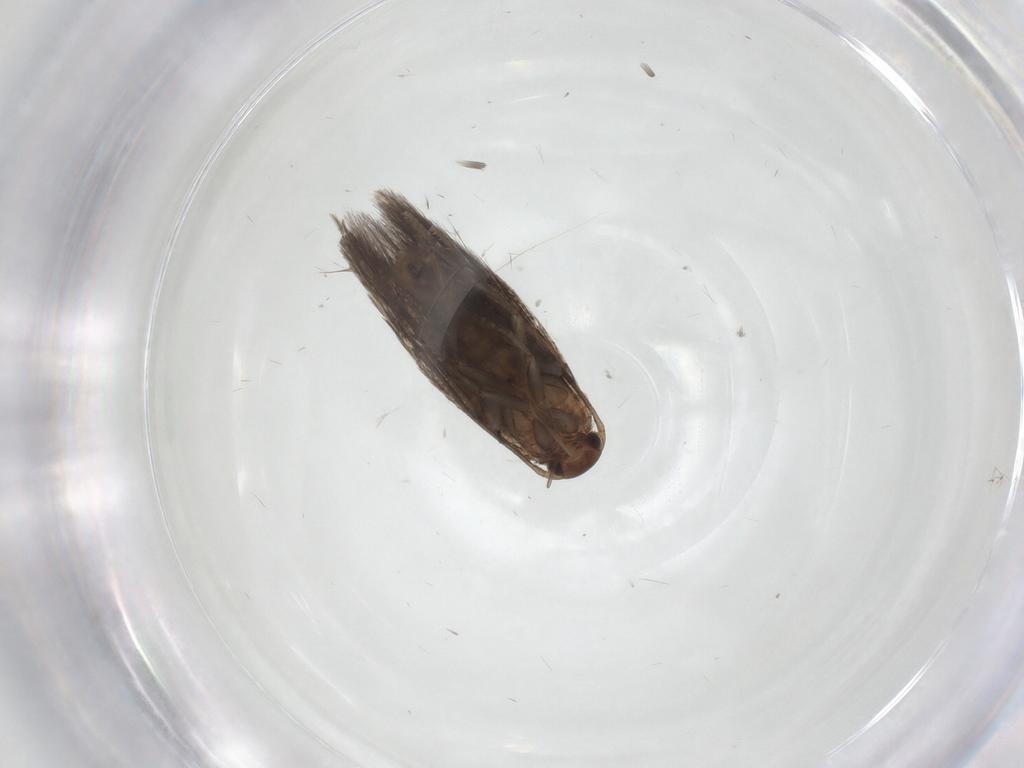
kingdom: Animalia
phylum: Arthropoda
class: Insecta
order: Lepidoptera
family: Elachistidae
